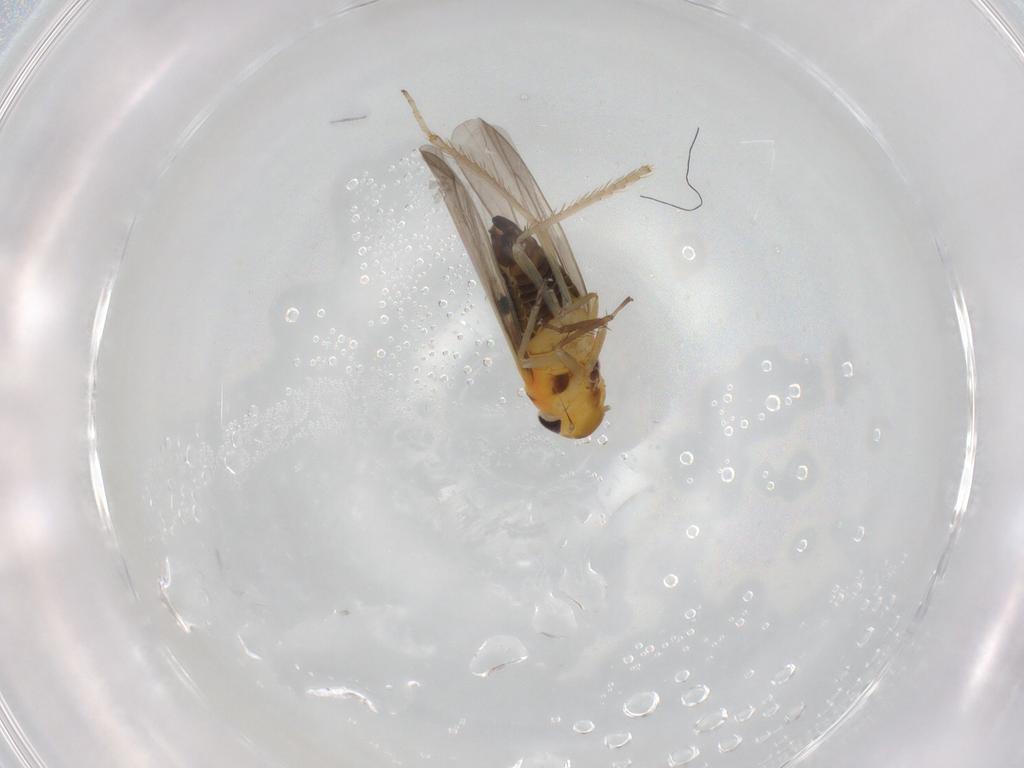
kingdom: Animalia
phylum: Arthropoda
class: Insecta
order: Hemiptera
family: Cicadellidae
